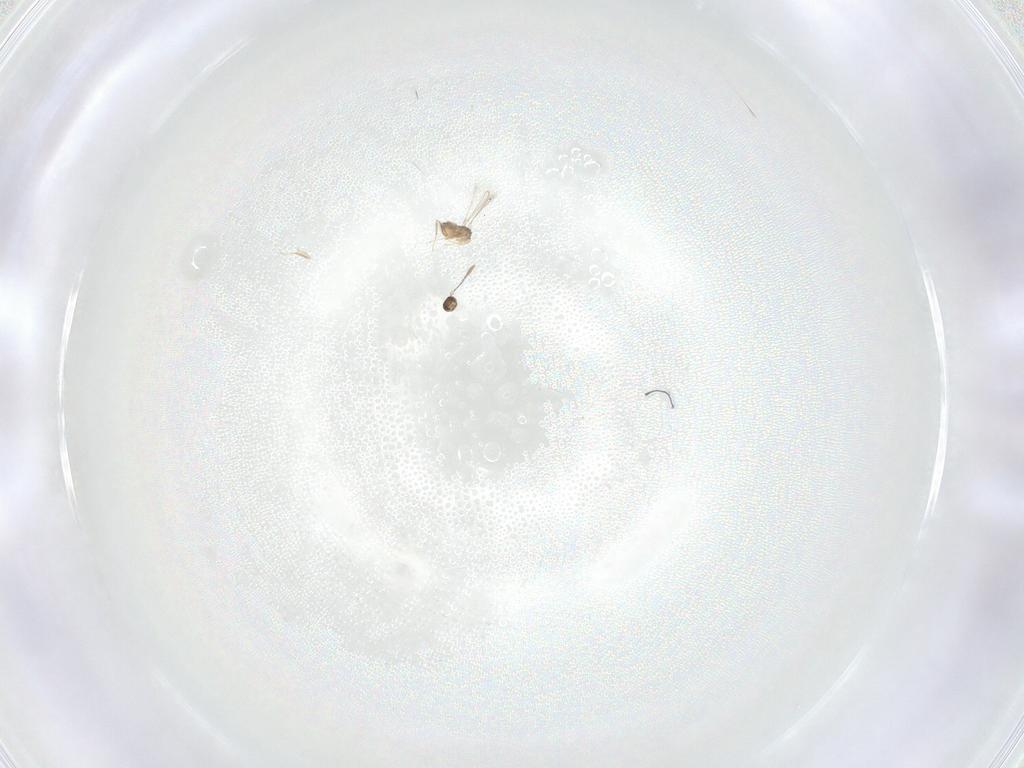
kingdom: Animalia
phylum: Arthropoda
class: Insecta
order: Hymenoptera
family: Mymaridae
